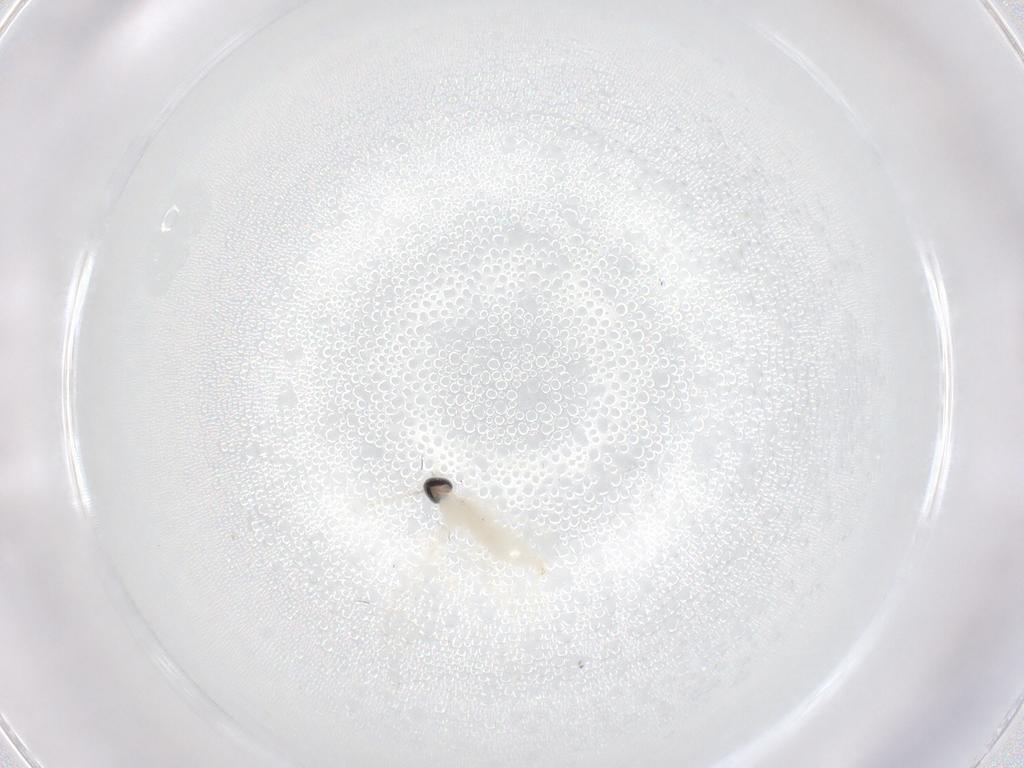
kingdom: Animalia
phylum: Arthropoda
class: Insecta
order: Diptera
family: Cecidomyiidae
